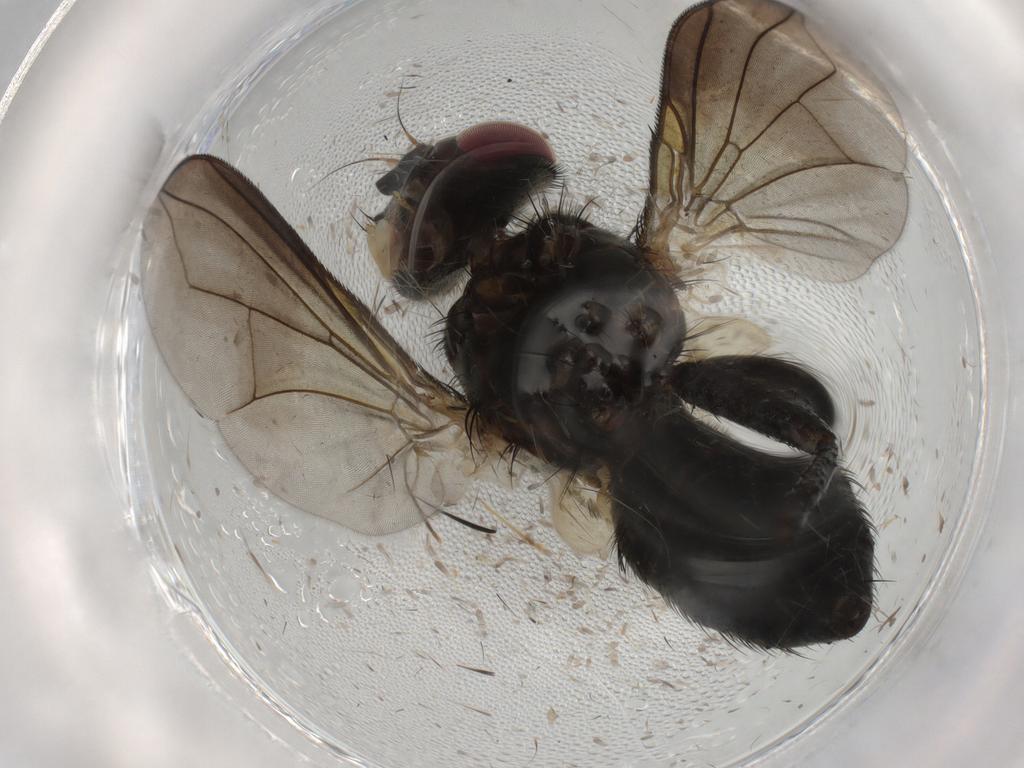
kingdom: Animalia
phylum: Arthropoda
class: Insecta
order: Diptera
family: Tachinidae
